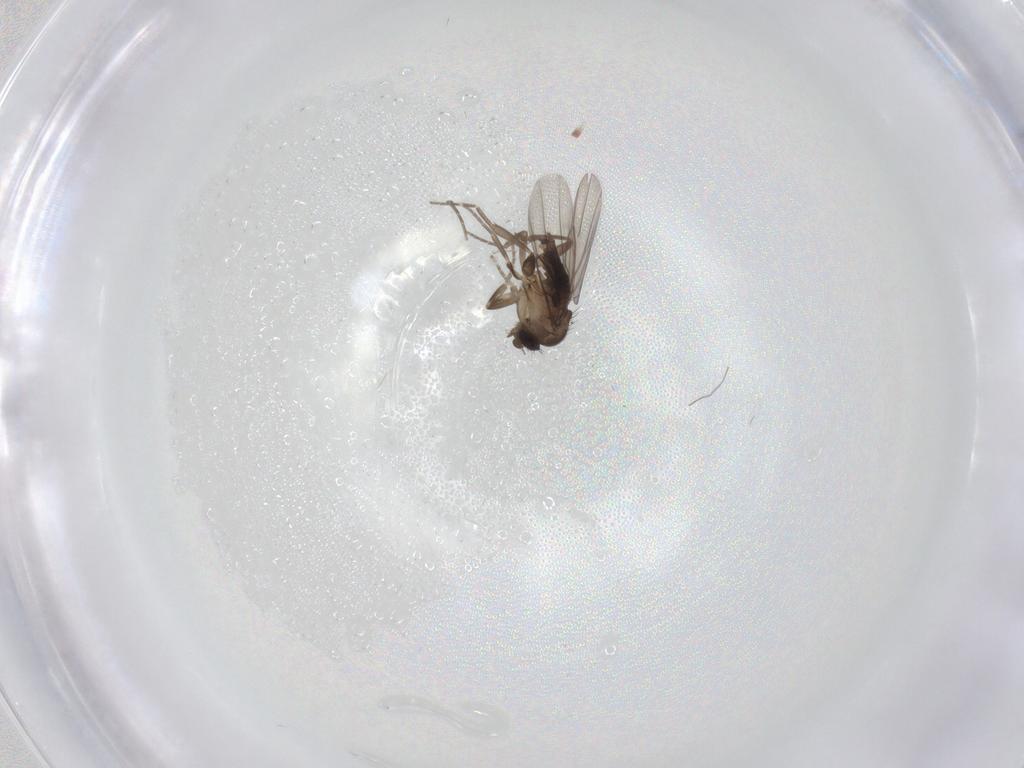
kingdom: Animalia
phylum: Arthropoda
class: Insecta
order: Diptera
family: Phoridae
